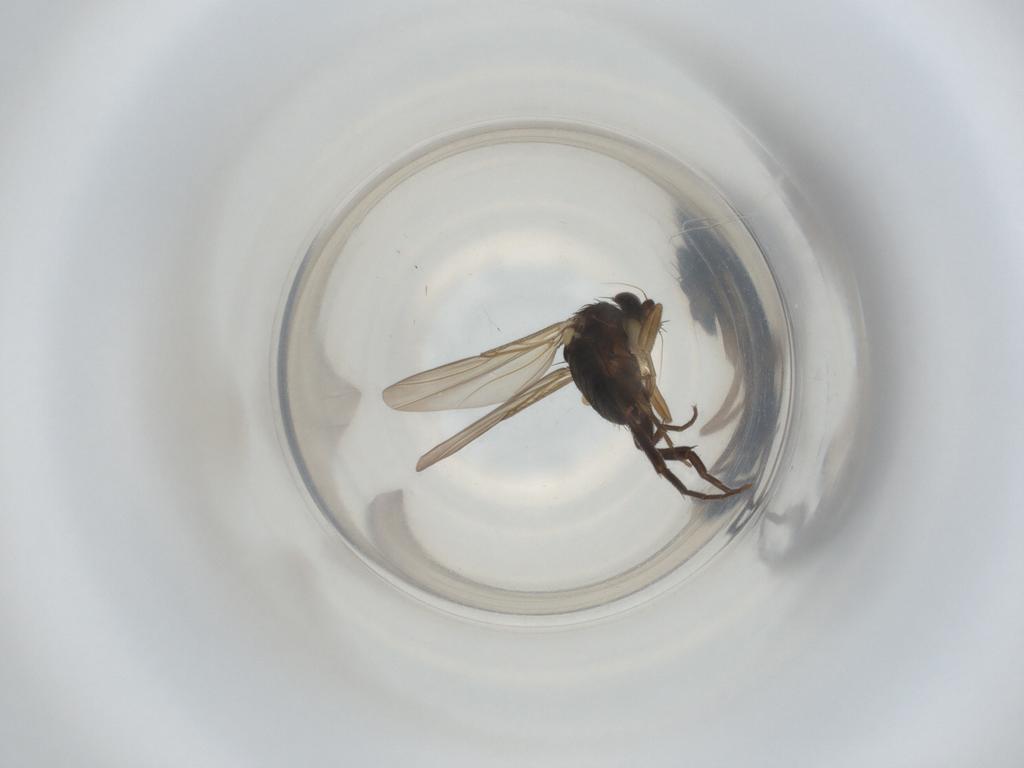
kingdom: Animalia
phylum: Arthropoda
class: Insecta
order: Diptera
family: Phoridae
